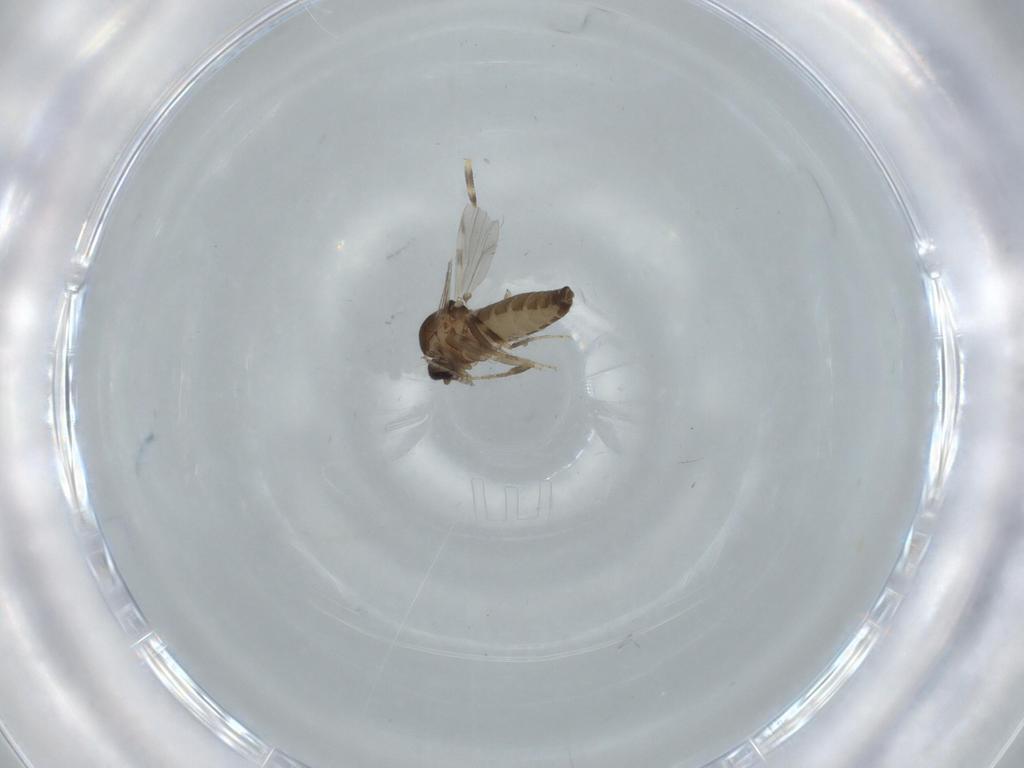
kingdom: Animalia
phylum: Arthropoda
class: Insecta
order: Diptera
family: Ceratopogonidae
